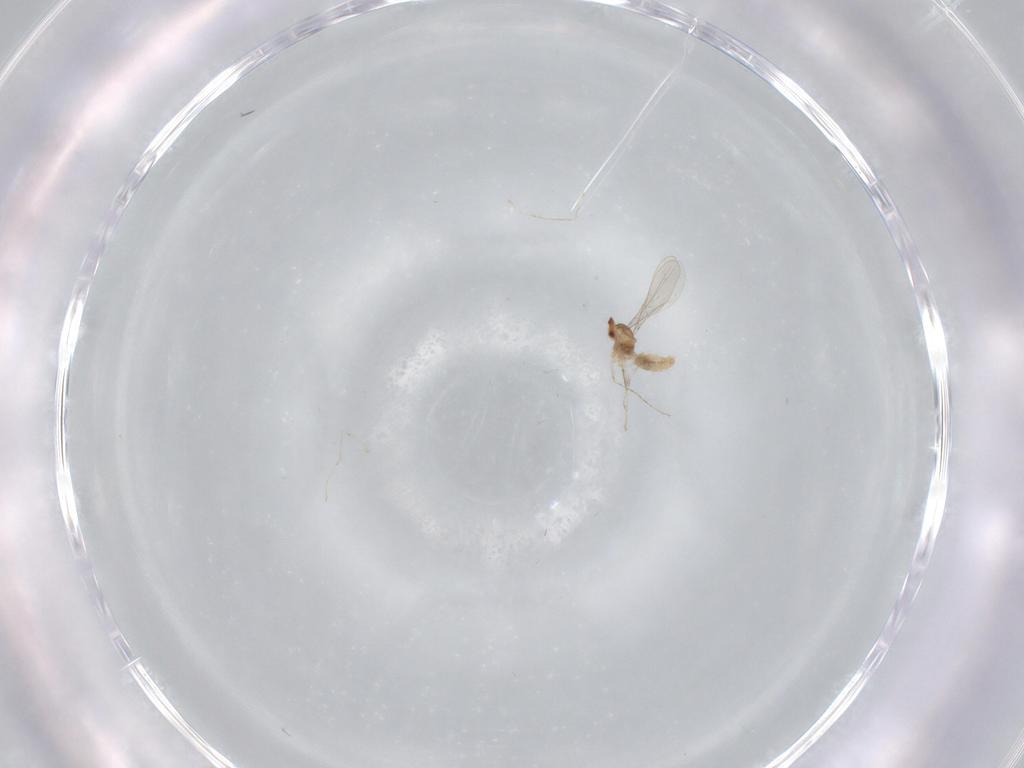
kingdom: Animalia
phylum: Arthropoda
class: Insecta
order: Diptera
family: Cecidomyiidae
